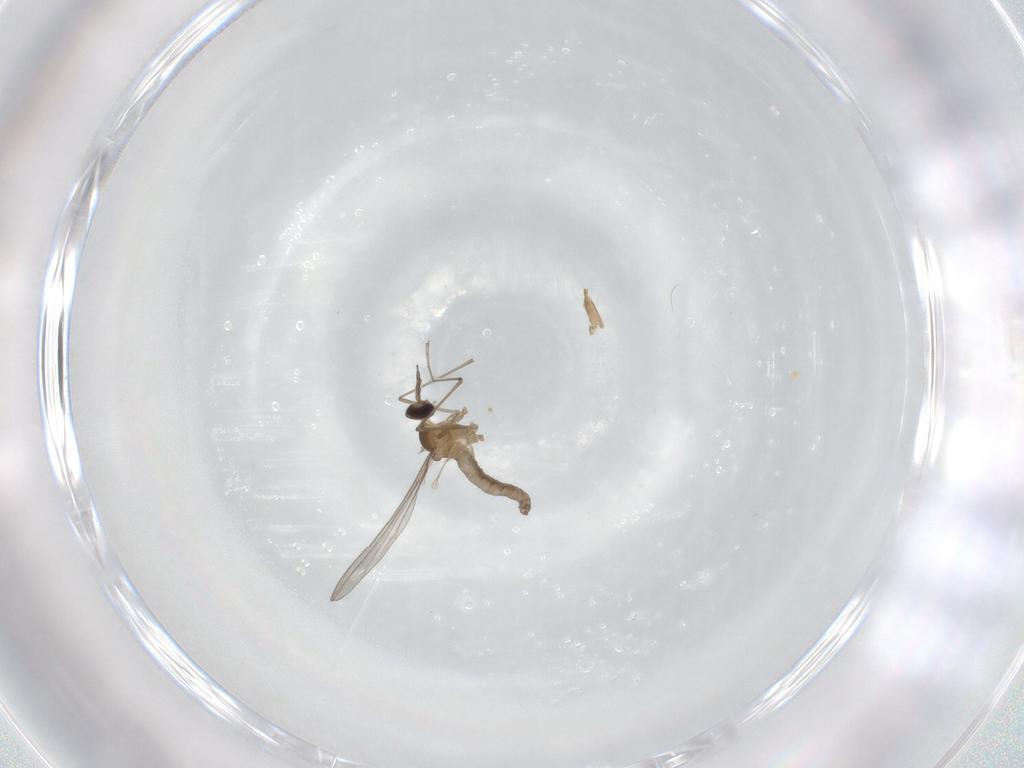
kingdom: Animalia
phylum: Arthropoda
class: Insecta
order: Diptera
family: Cecidomyiidae
